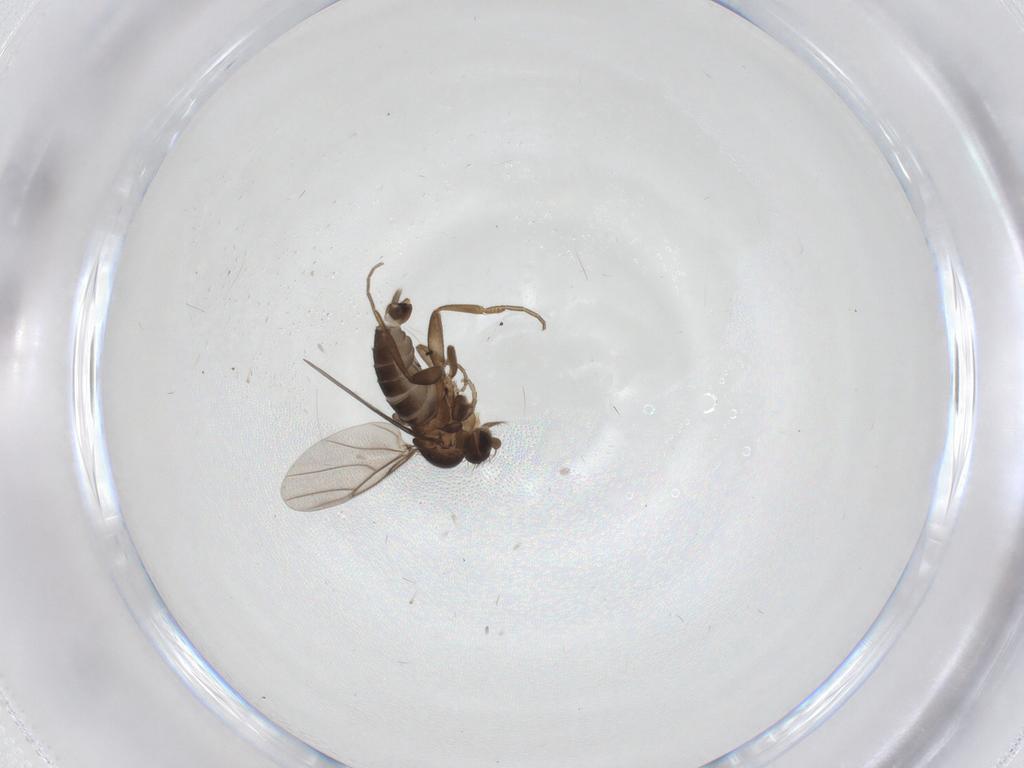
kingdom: Animalia
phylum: Arthropoda
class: Insecta
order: Diptera
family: Phoridae
